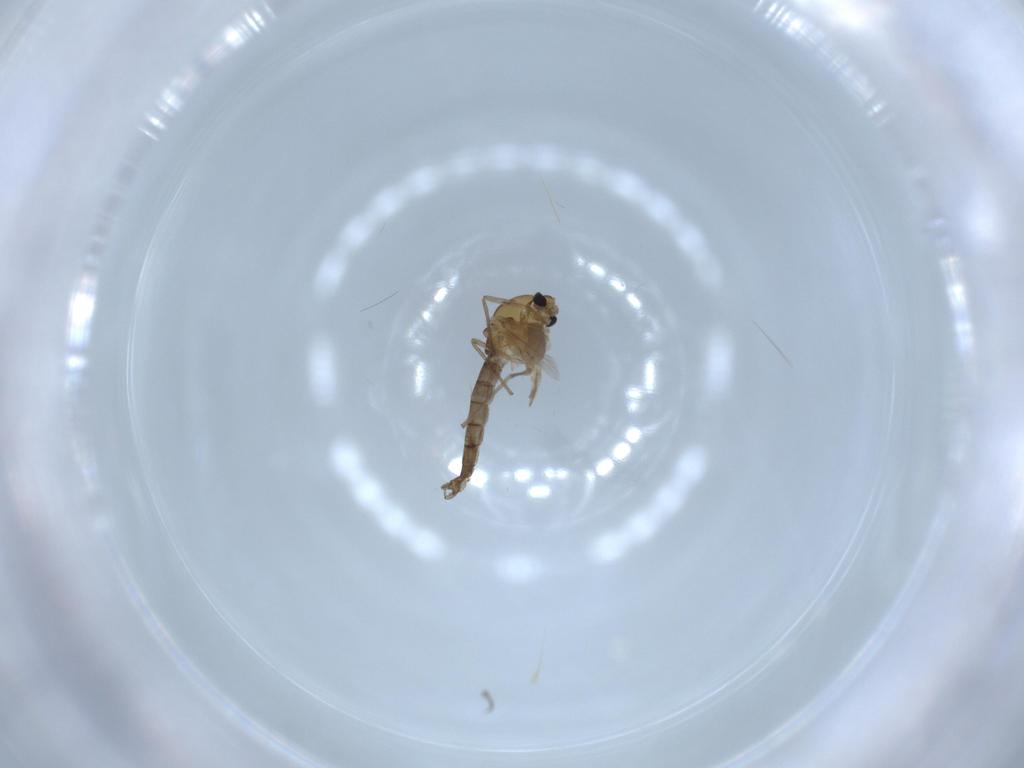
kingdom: Animalia
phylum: Arthropoda
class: Insecta
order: Diptera
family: Chironomidae
